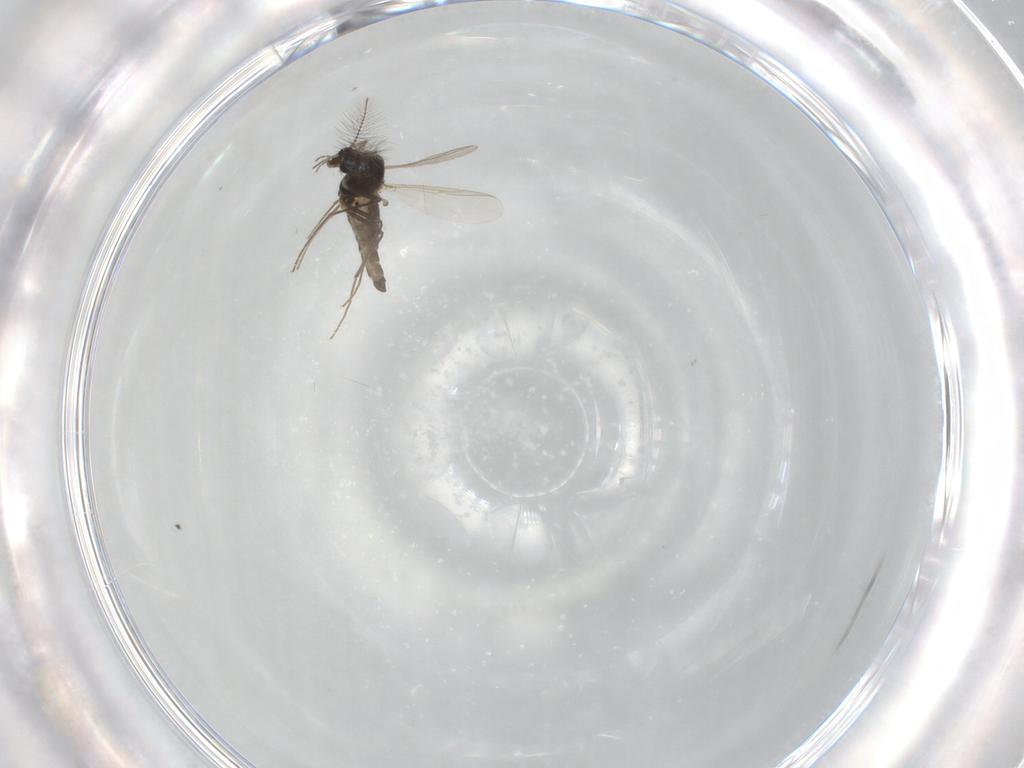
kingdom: Animalia
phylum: Arthropoda
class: Insecta
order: Diptera
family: Chironomidae
